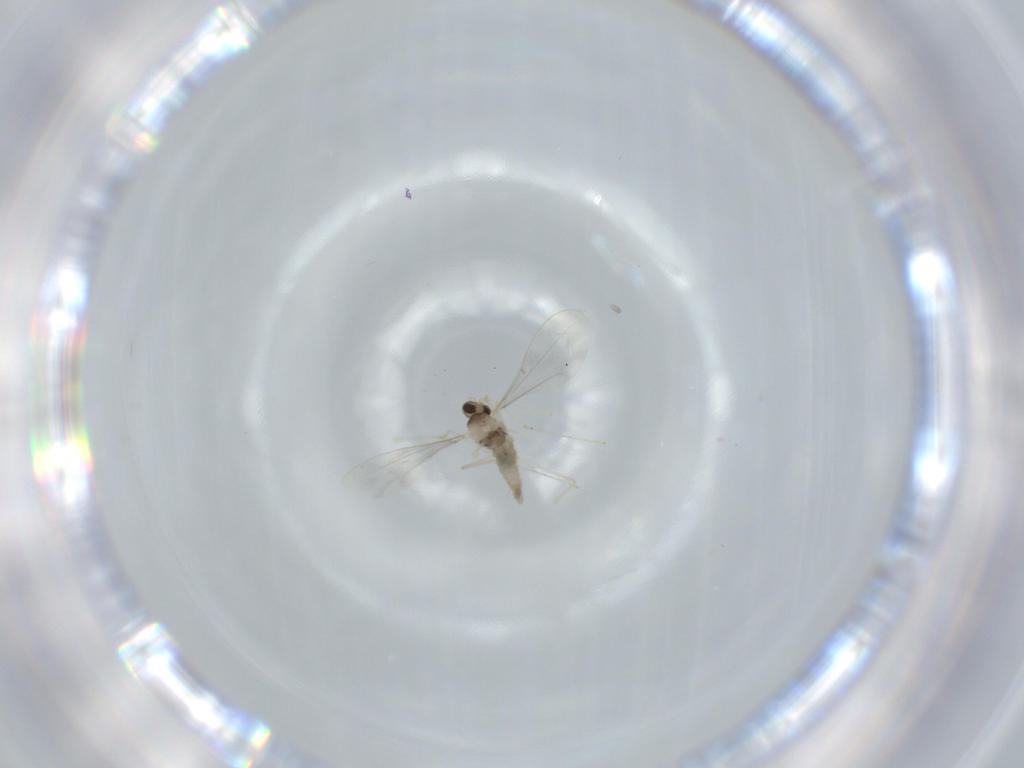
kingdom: Animalia
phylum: Arthropoda
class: Insecta
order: Diptera
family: Cecidomyiidae
